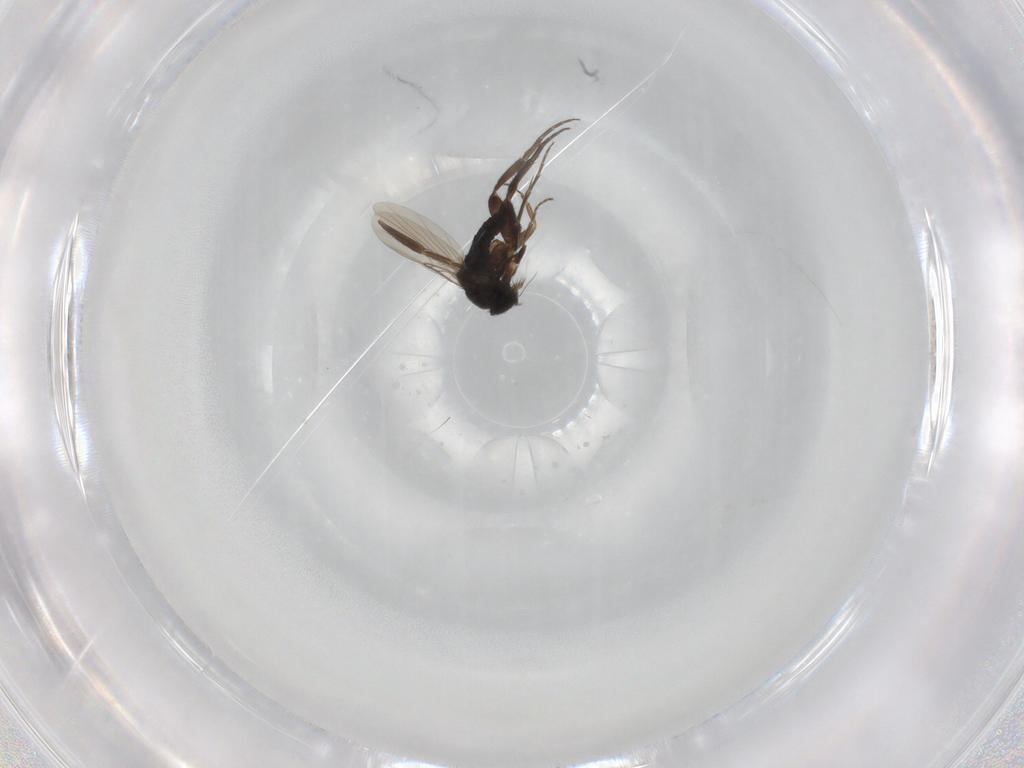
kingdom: Animalia
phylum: Arthropoda
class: Insecta
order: Diptera
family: Phoridae
